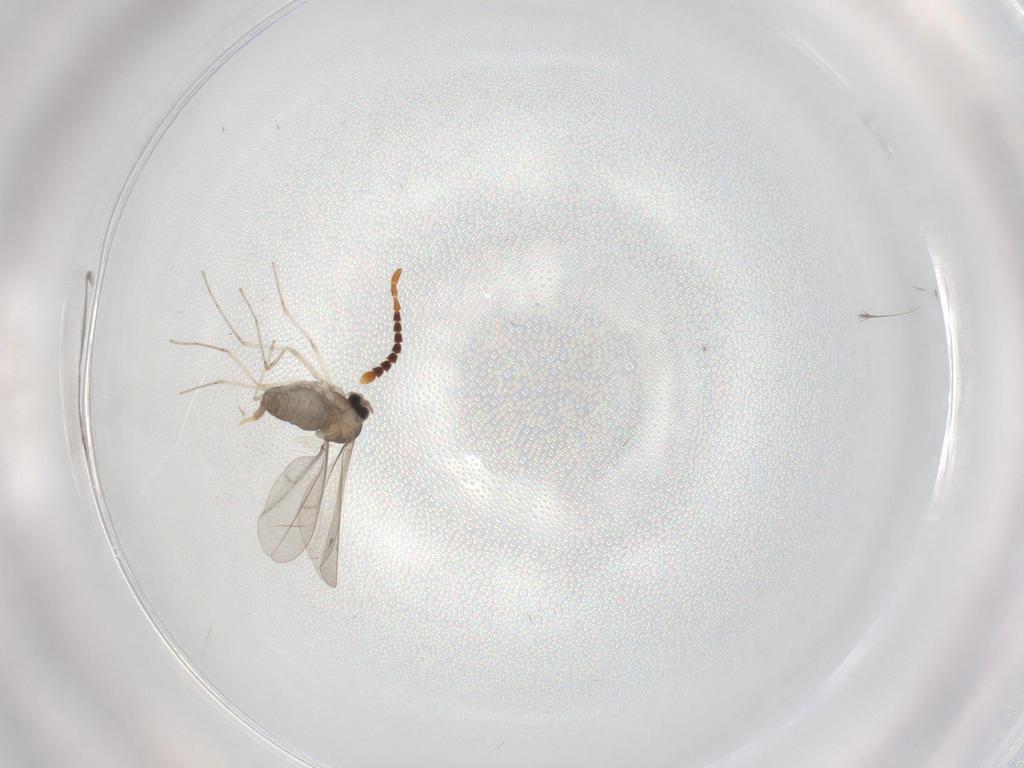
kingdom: Animalia
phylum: Arthropoda
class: Insecta
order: Diptera
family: Cecidomyiidae
